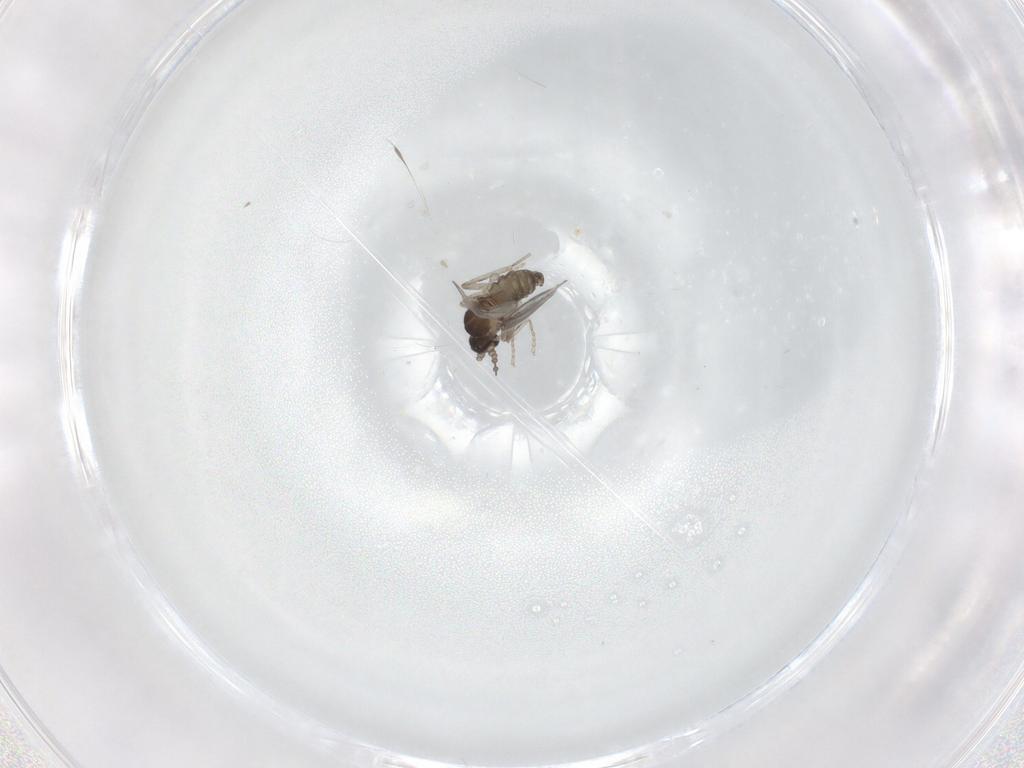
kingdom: Animalia
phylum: Arthropoda
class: Insecta
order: Diptera
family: Cecidomyiidae
